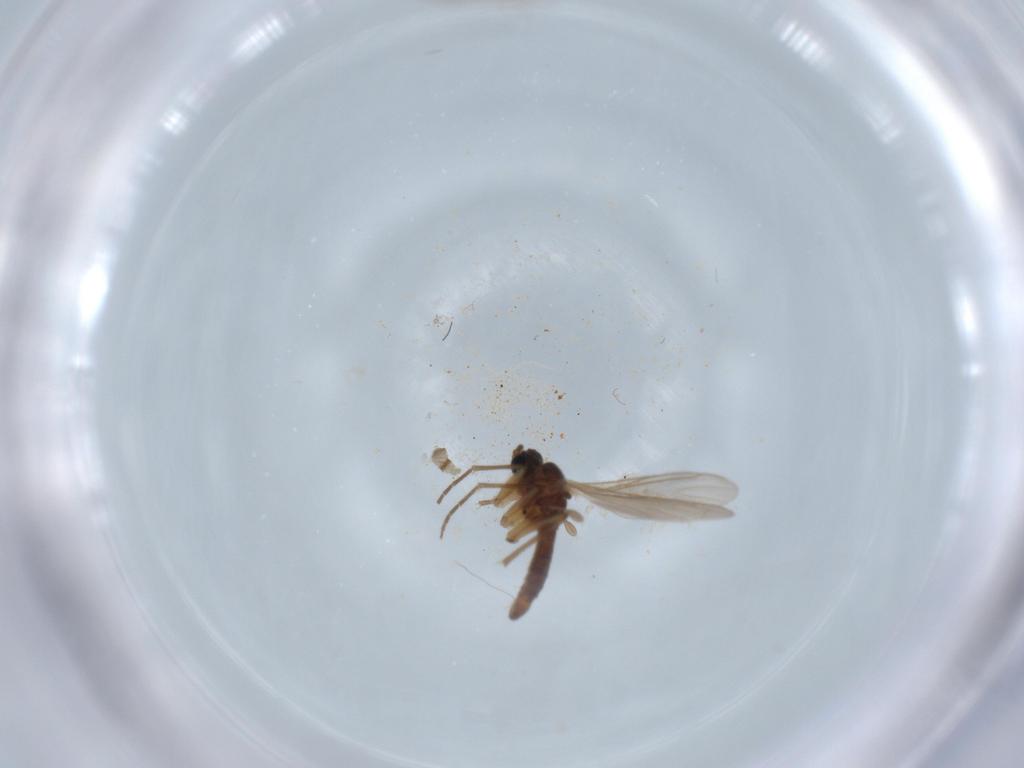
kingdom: Animalia
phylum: Arthropoda
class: Insecta
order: Diptera
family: Sciaridae
